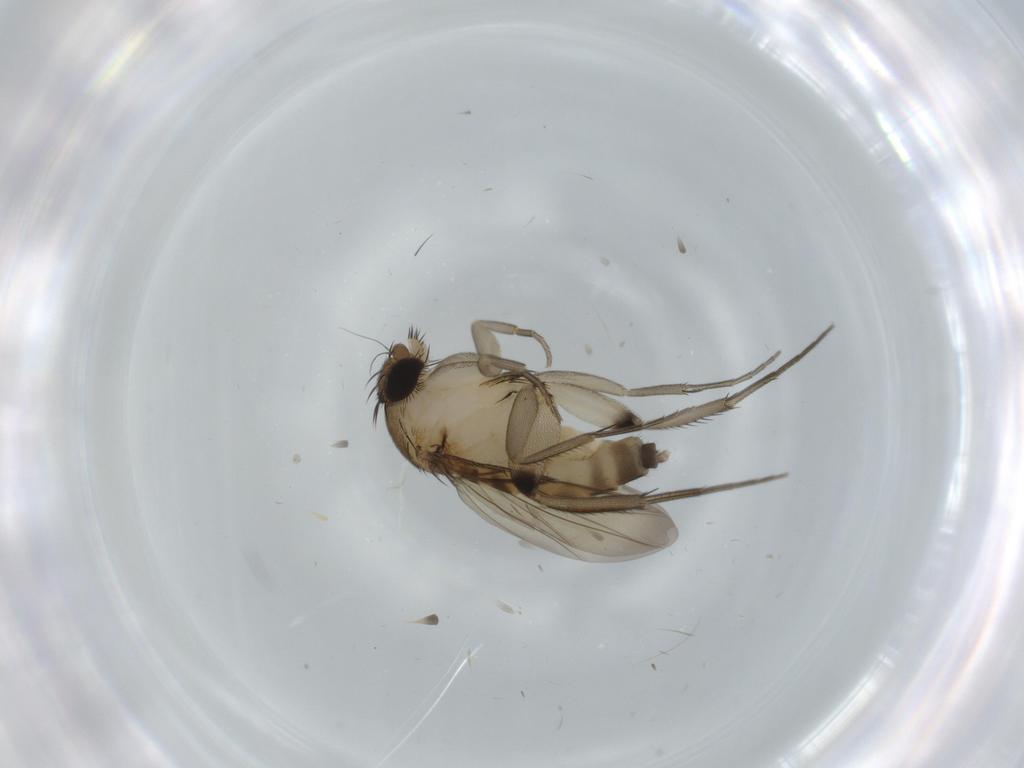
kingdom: Animalia
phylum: Arthropoda
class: Insecta
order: Diptera
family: Phoridae
